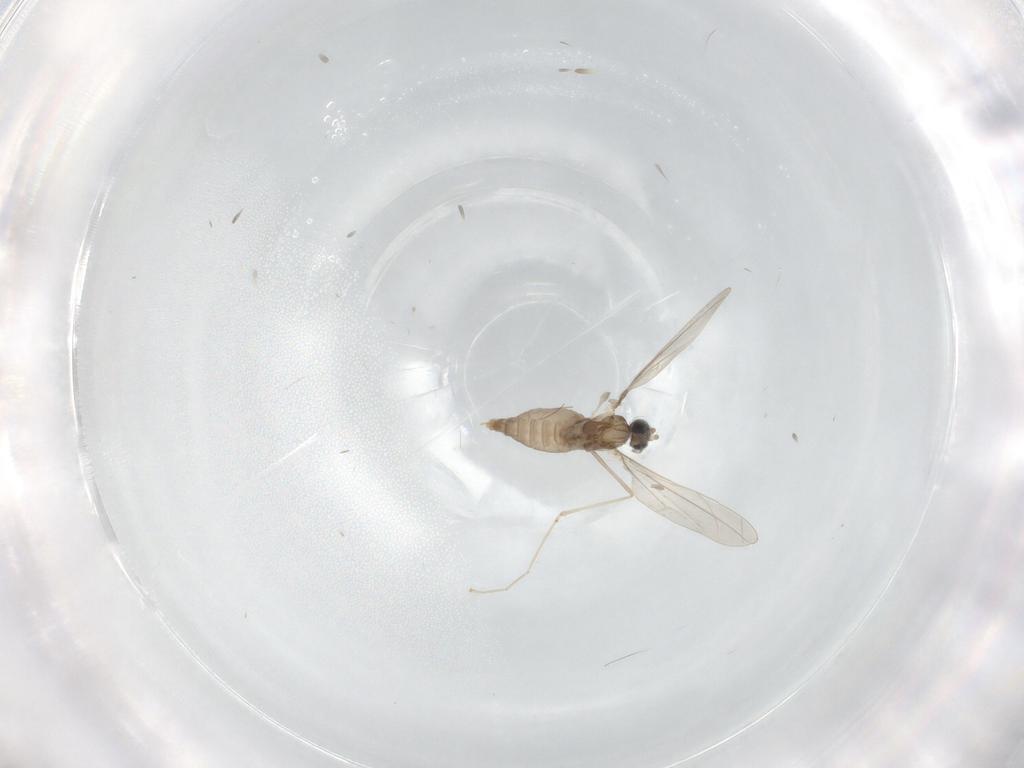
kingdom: Animalia
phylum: Arthropoda
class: Insecta
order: Diptera
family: Cecidomyiidae
